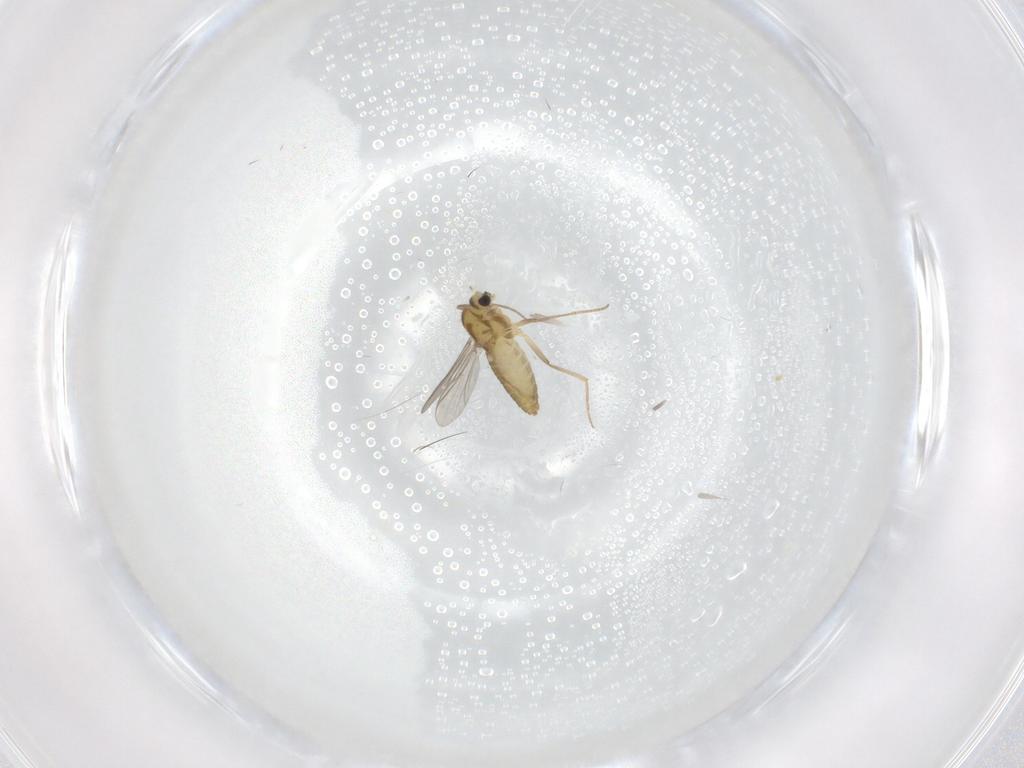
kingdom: Animalia
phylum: Arthropoda
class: Insecta
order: Diptera
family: Chironomidae
